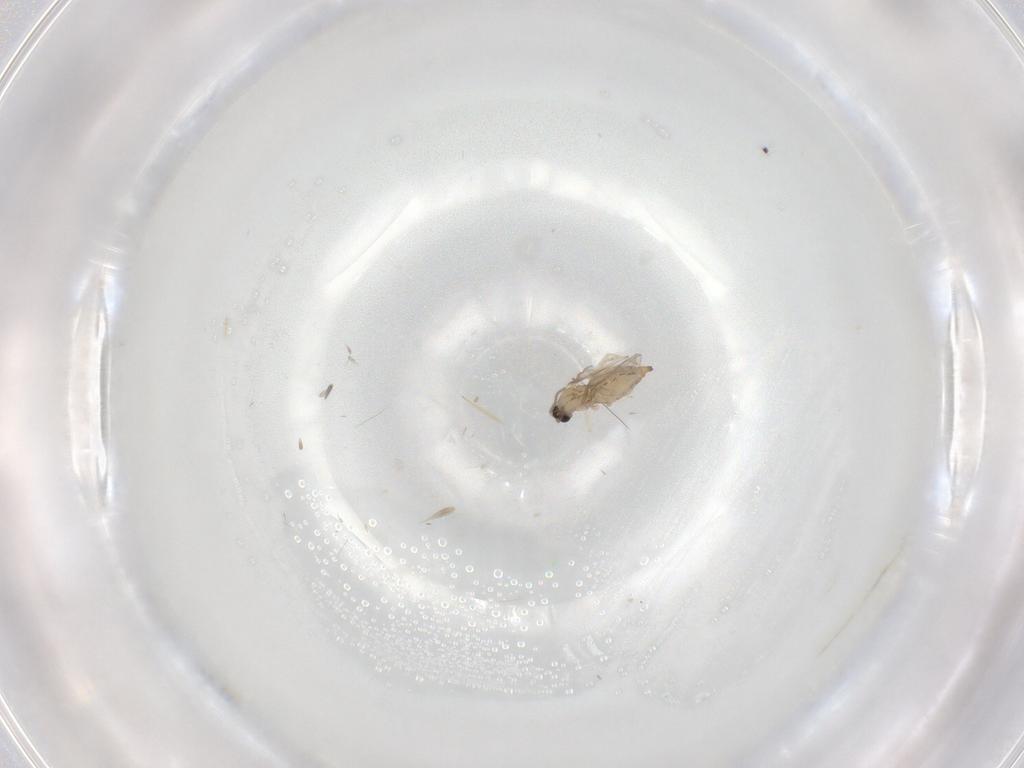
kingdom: Animalia
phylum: Arthropoda
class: Insecta
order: Diptera
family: Cecidomyiidae
